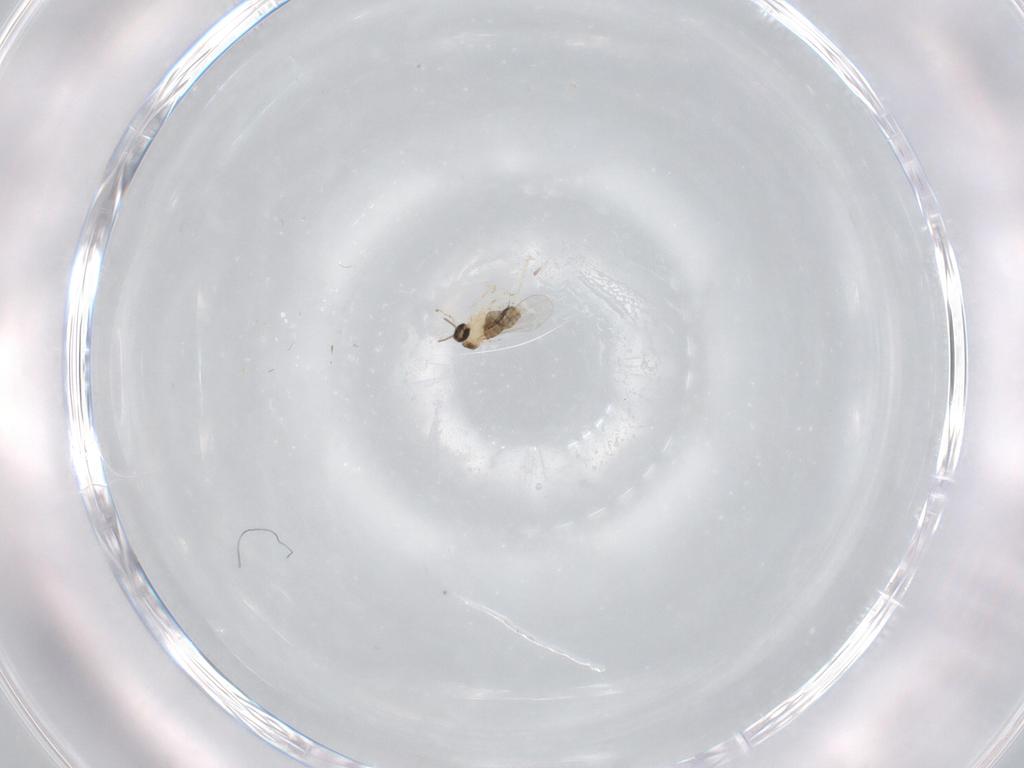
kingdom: Animalia
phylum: Arthropoda
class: Insecta
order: Diptera
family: Cecidomyiidae
